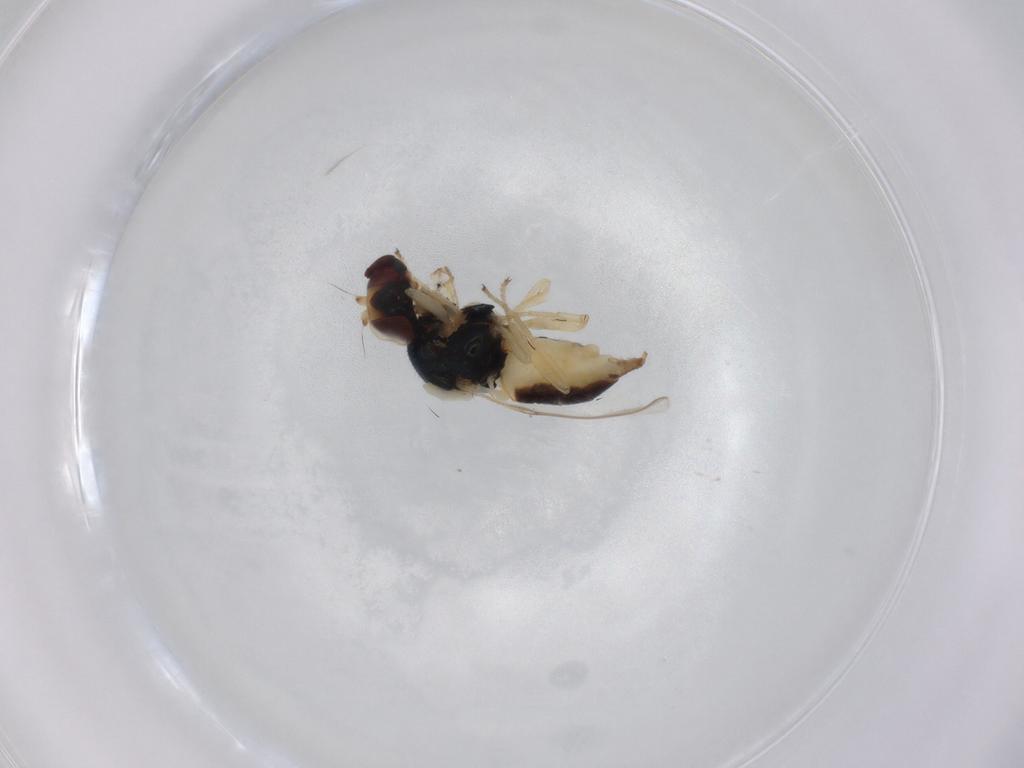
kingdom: Animalia
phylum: Arthropoda
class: Insecta
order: Diptera
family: Chloropidae
